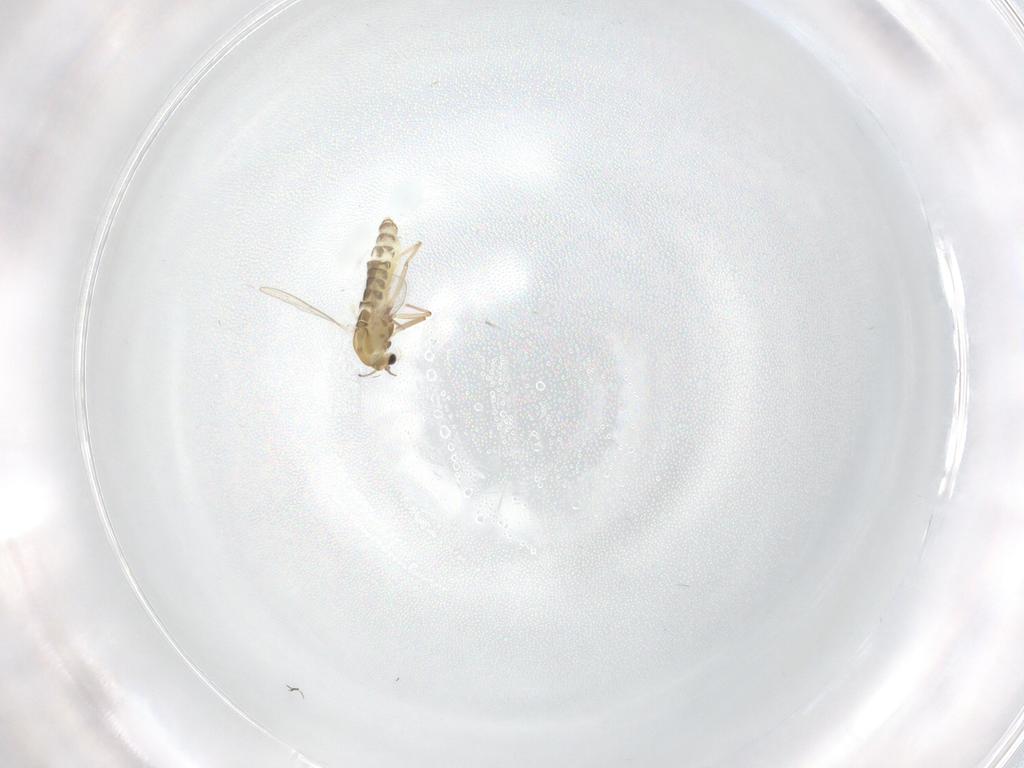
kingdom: Animalia
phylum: Arthropoda
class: Insecta
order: Diptera
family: Chironomidae
